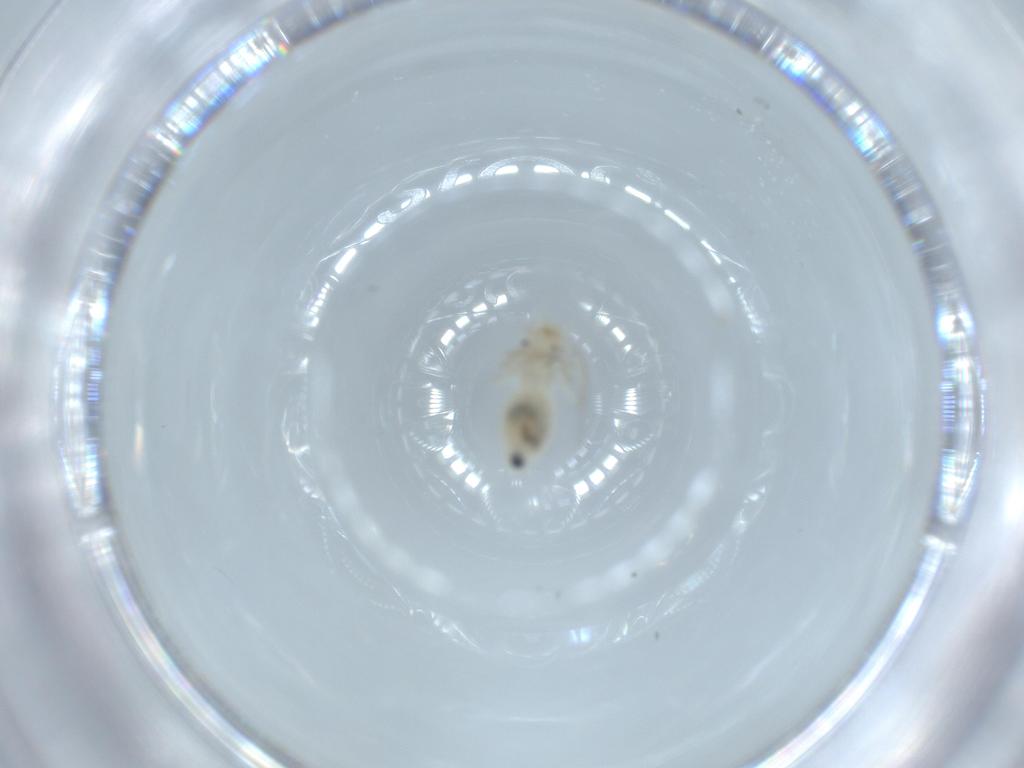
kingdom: Animalia
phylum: Arthropoda
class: Insecta
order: Psocodea
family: Caeciliusidae
